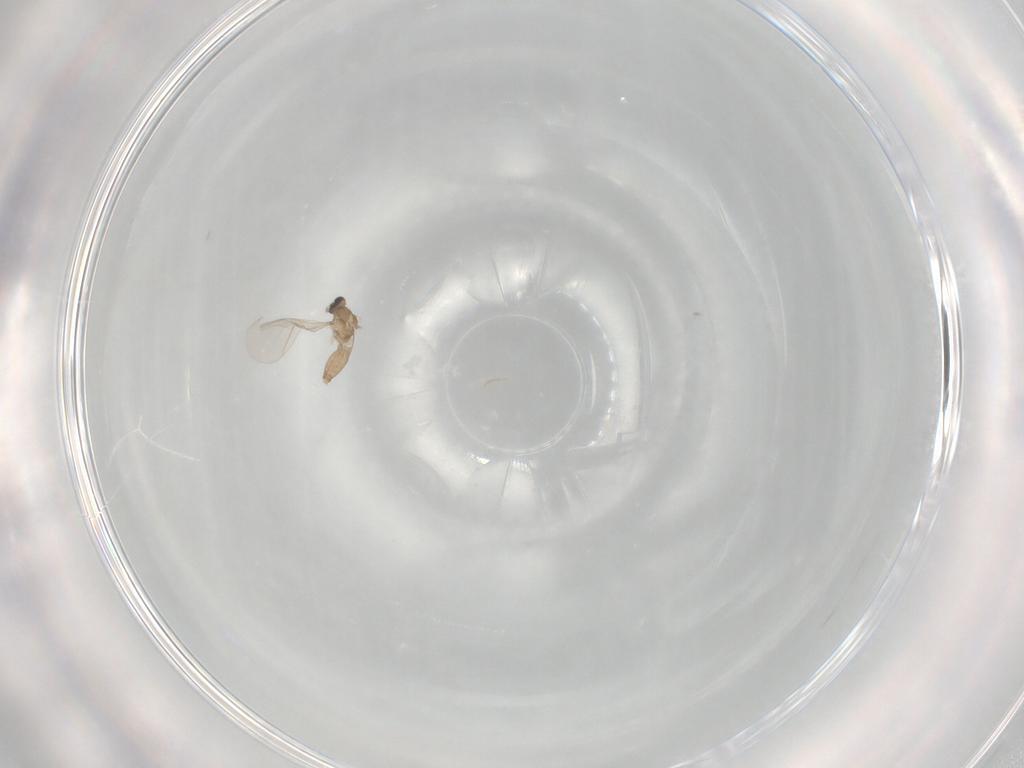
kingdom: Animalia
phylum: Arthropoda
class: Insecta
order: Diptera
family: Cecidomyiidae
